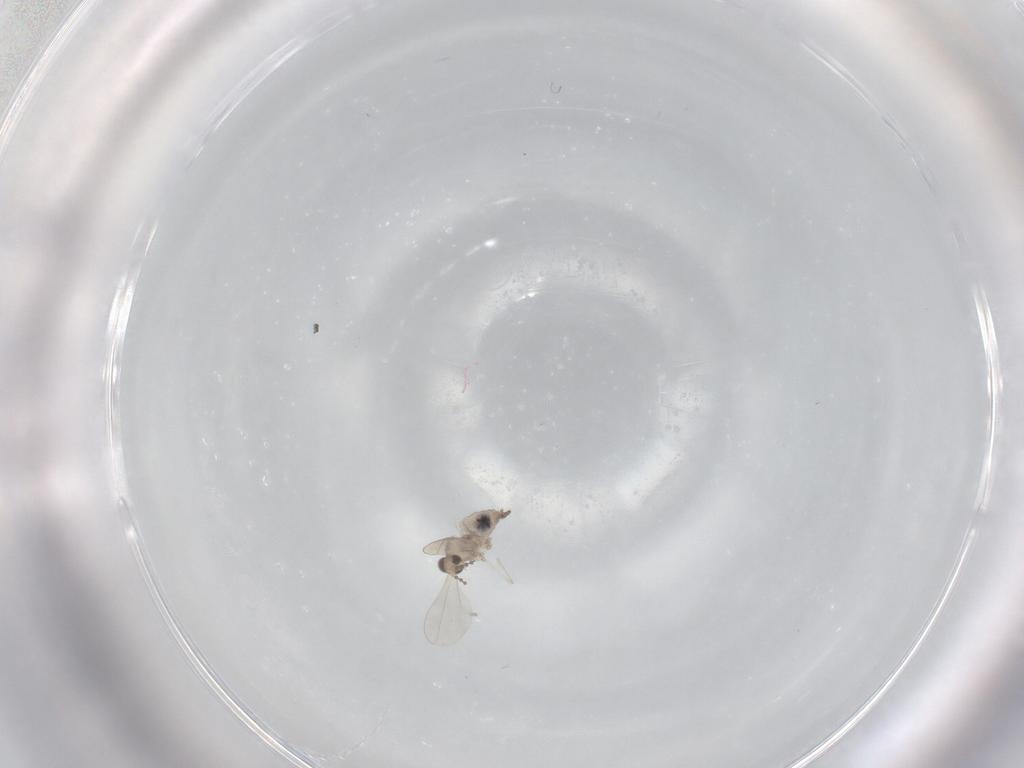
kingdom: Animalia
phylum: Arthropoda
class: Insecta
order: Diptera
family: Cecidomyiidae
